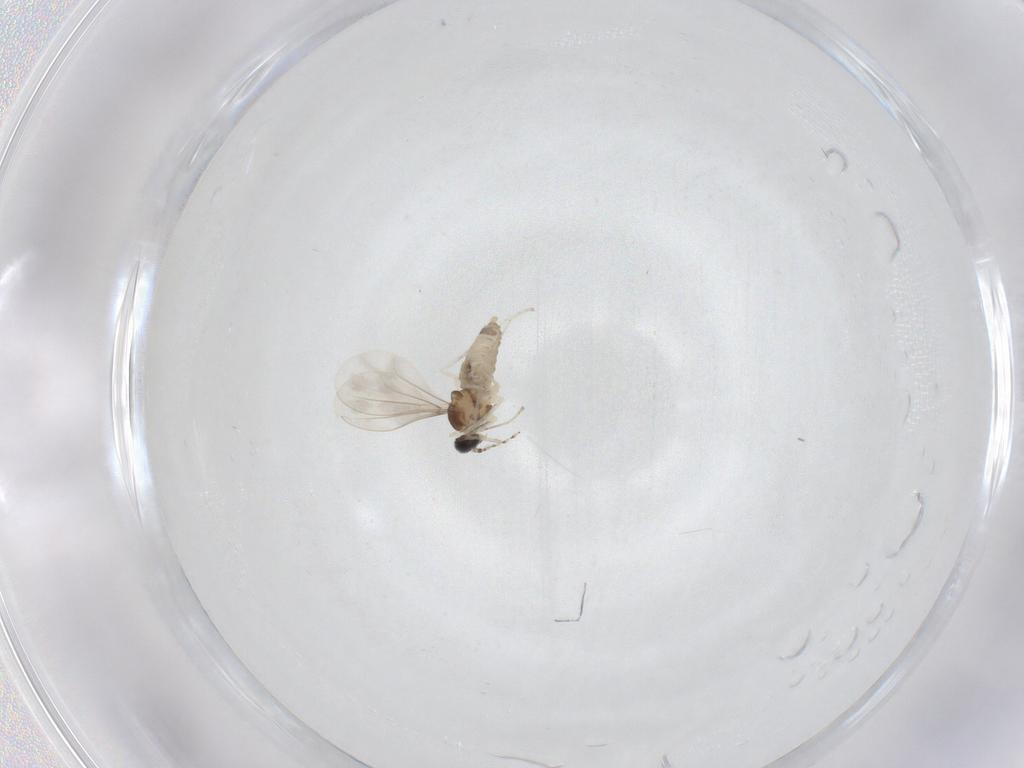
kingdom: Animalia
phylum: Arthropoda
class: Insecta
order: Diptera
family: Cecidomyiidae
